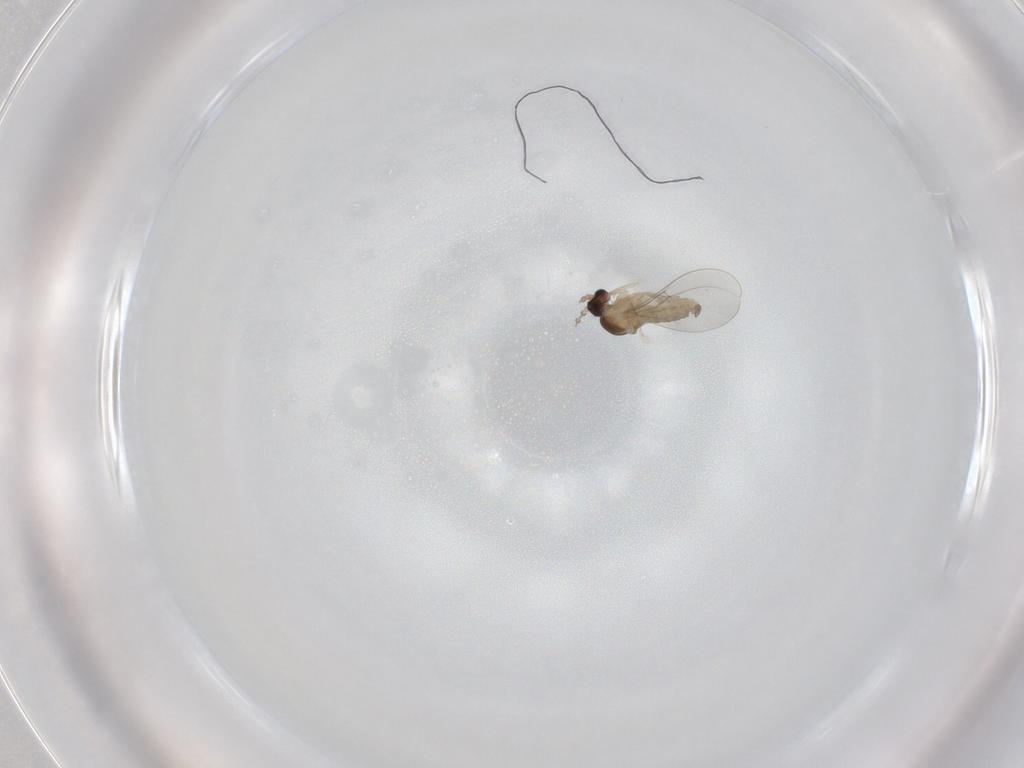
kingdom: Animalia
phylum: Arthropoda
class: Insecta
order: Diptera
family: Cecidomyiidae
